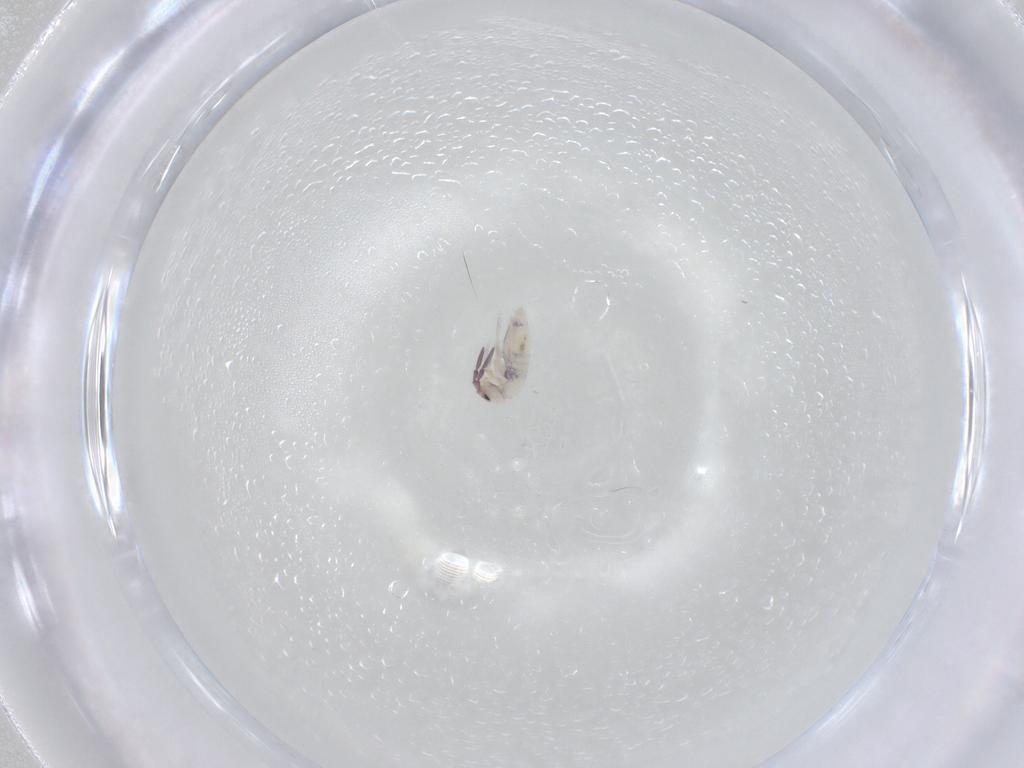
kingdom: Animalia
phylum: Arthropoda
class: Collembola
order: Entomobryomorpha
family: Entomobryidae
